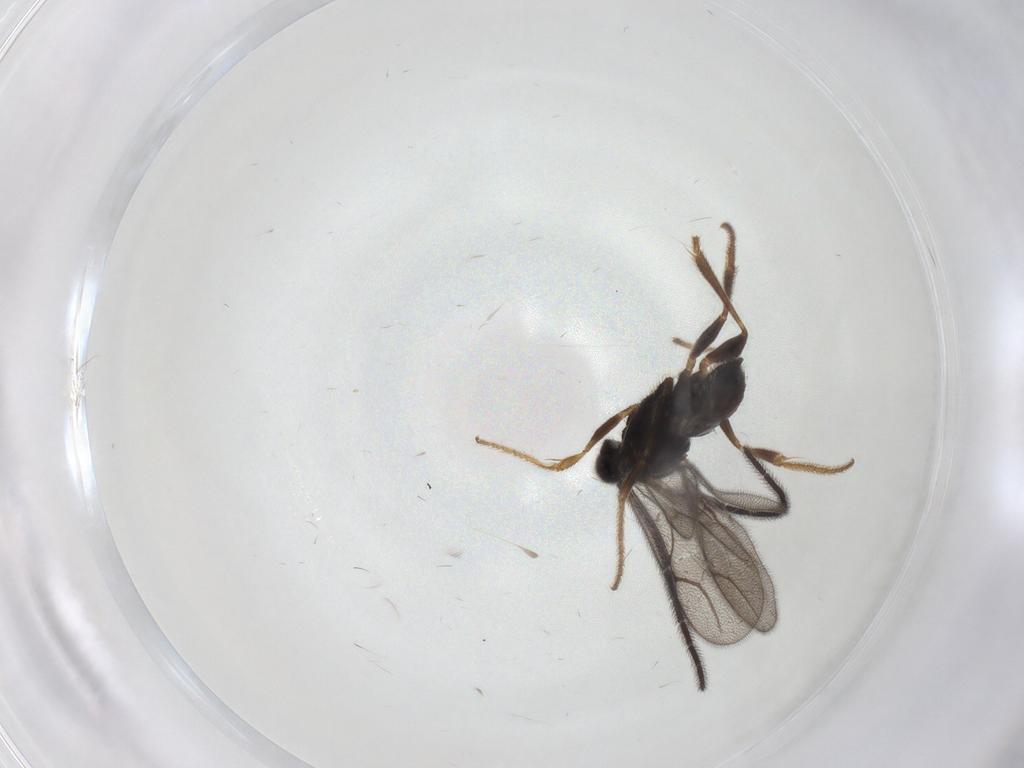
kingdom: Animalia
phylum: Arthropoda
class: Insecta
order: Hymenoptera
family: Dryinidae
